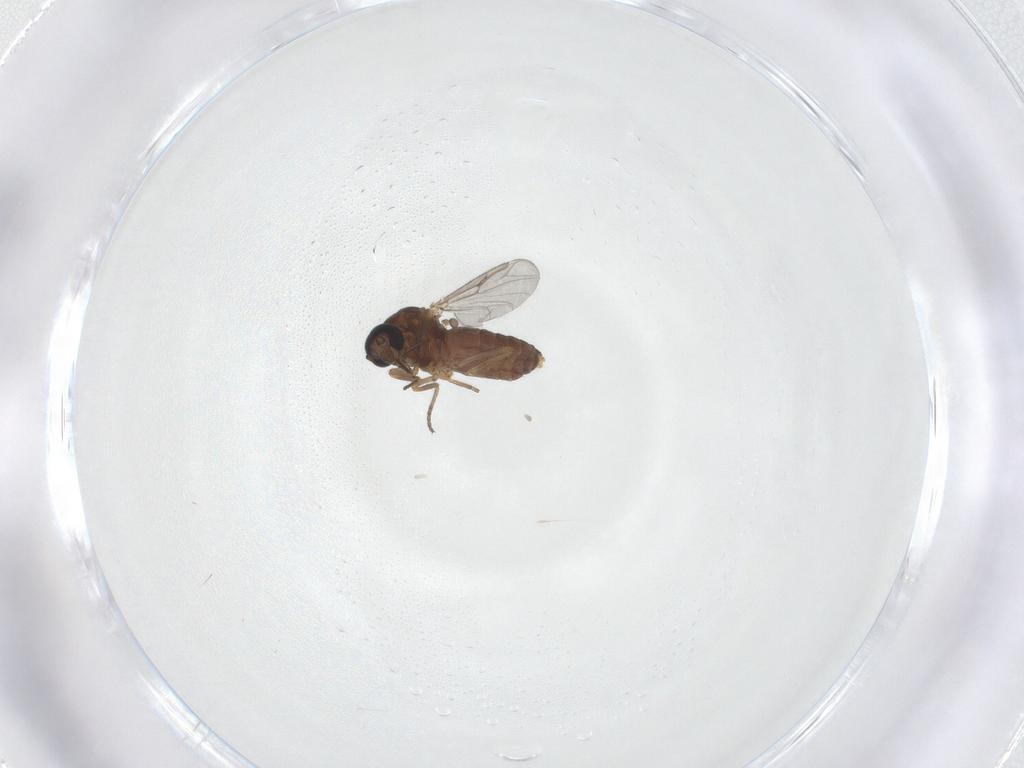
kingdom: Animalia
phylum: Arthropoda
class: Insecta
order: Diptera
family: Ceratopogonidae
